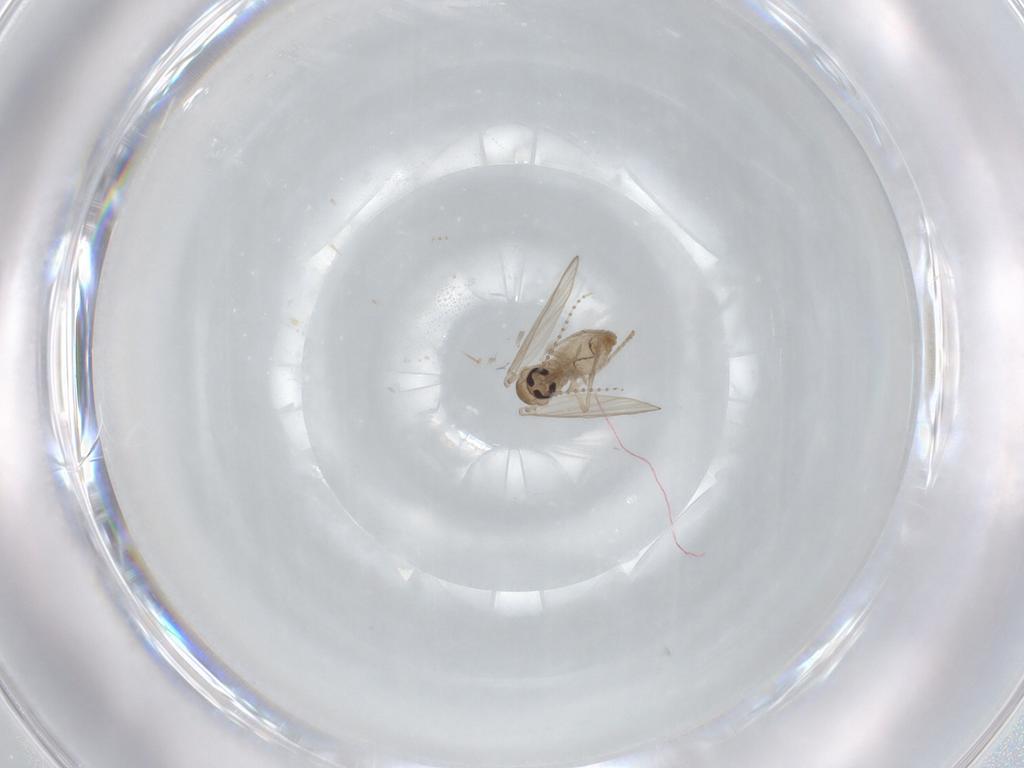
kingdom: Animalia
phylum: Arthropoda
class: Insecta
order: Diptera
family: Psychodidae
